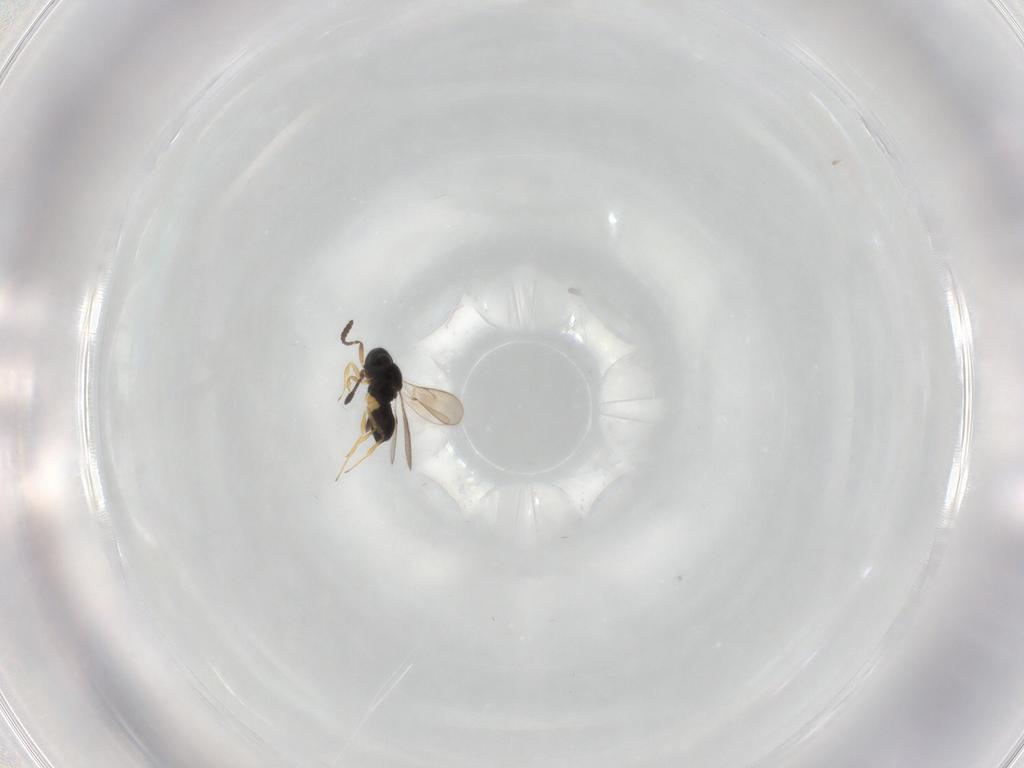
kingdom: Animalia
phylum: Arthropoda
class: Insecta
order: Hymenoptera
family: Scelionidae
